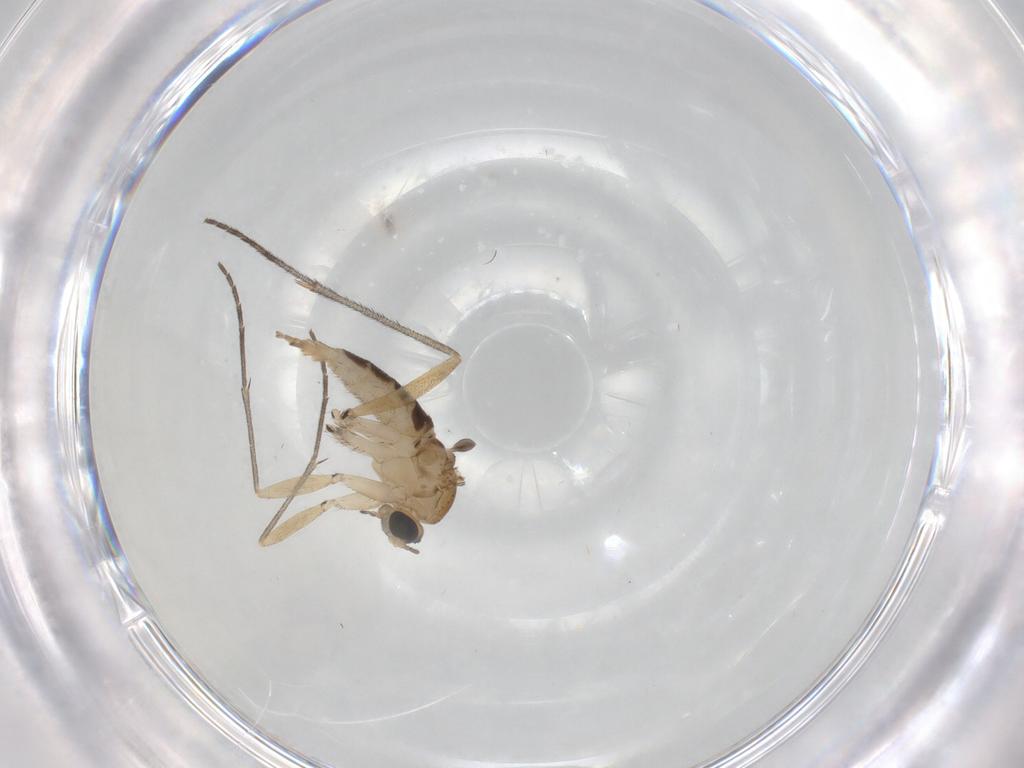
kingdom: Animalia
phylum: Arthropoda
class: Insecta
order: Diptera
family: Sciaridae
